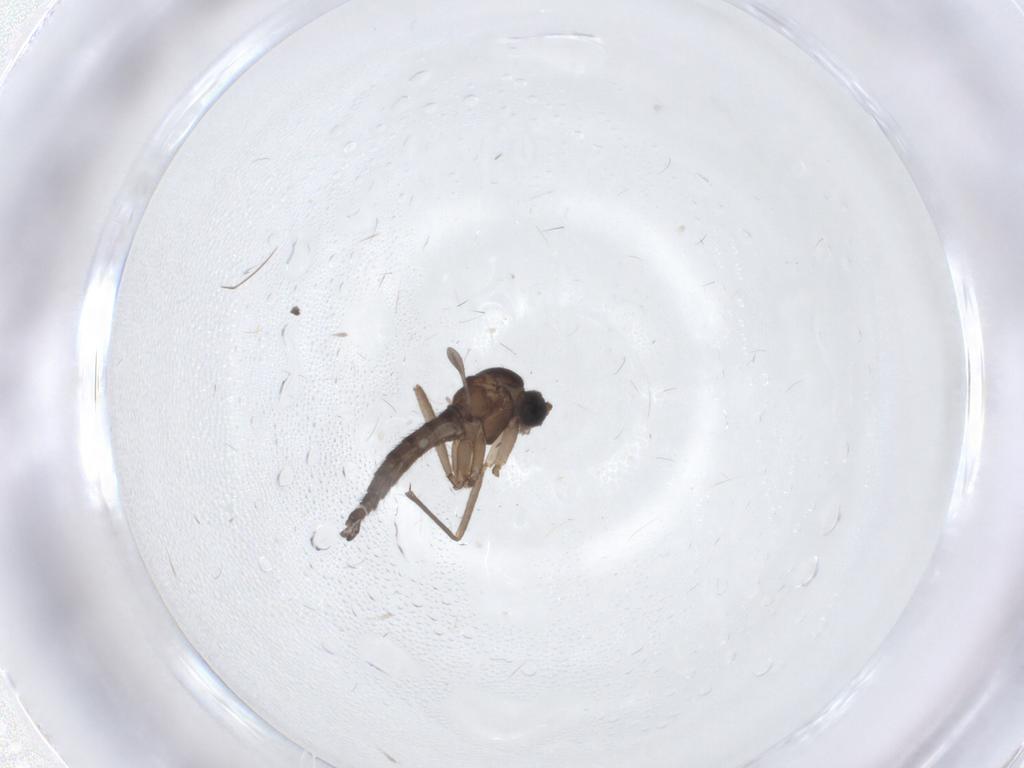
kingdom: Animalia
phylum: Arthropoda
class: Insecta
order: Diptera
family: Sciaridae
